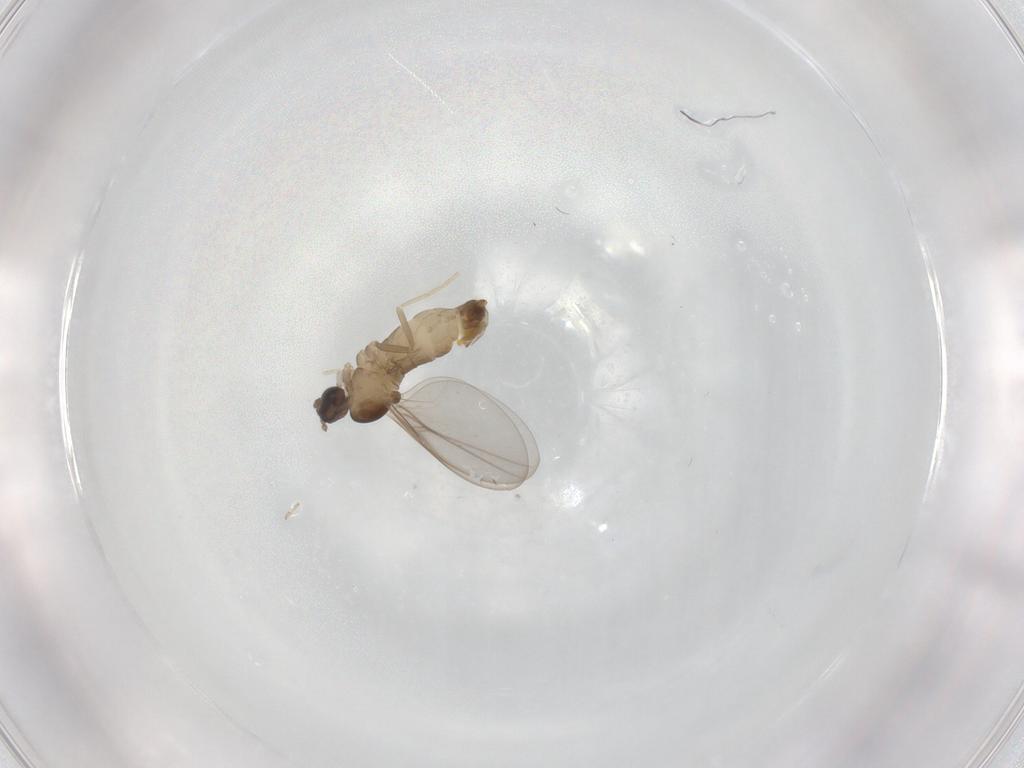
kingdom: Animalia
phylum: Arthropoda
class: Insecta
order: Diptera
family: Cecidomyiidae
